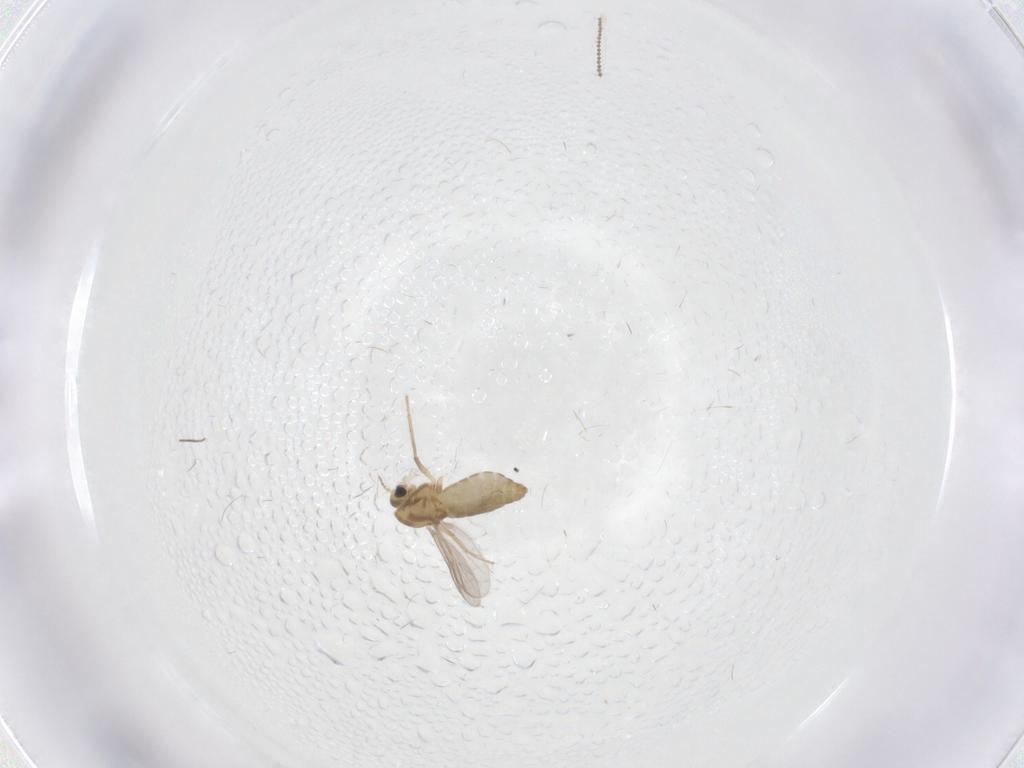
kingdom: Animalia
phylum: Arthropoda
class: Insecta
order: Diptera
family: Chironomidae
